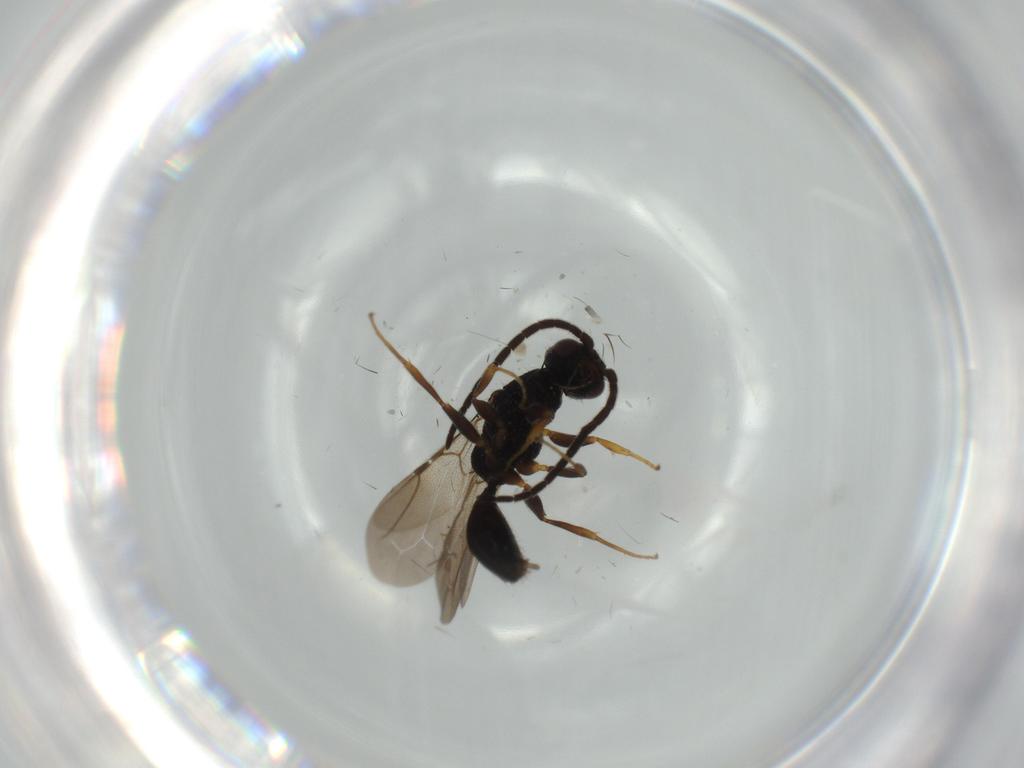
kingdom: Animalia
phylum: Arthropoda
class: Insecta
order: Hymenoptera
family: Bethylidae
